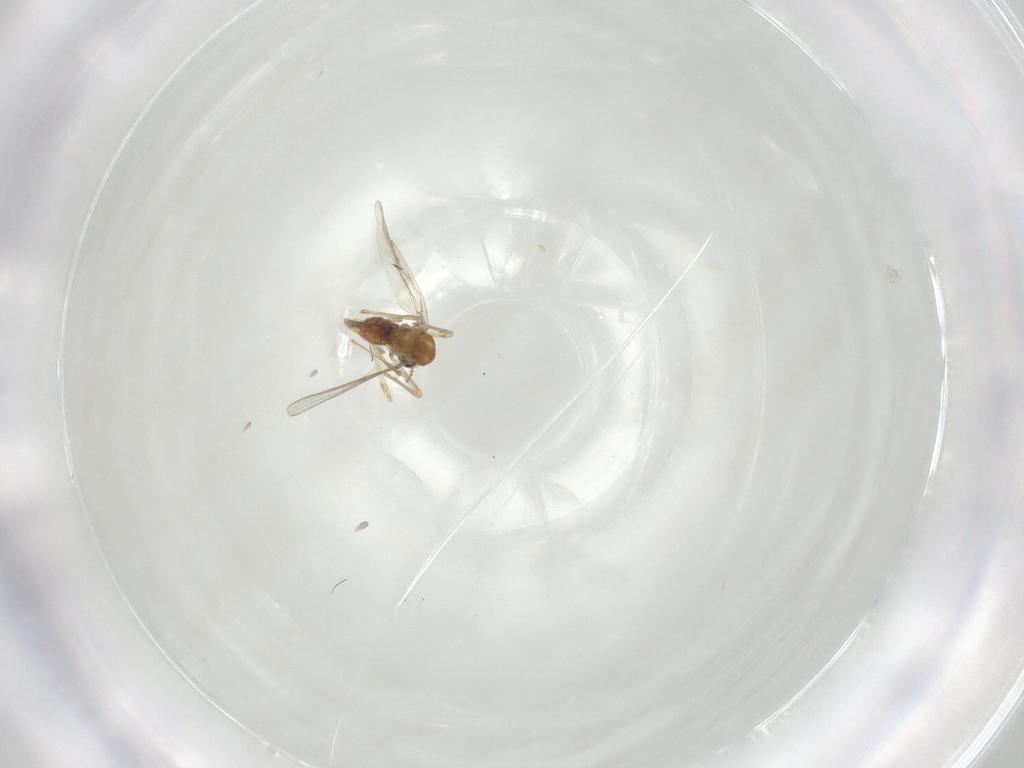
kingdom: Animalia
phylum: Arthropoda
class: Insecta
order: Diptera
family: Chironomidae
